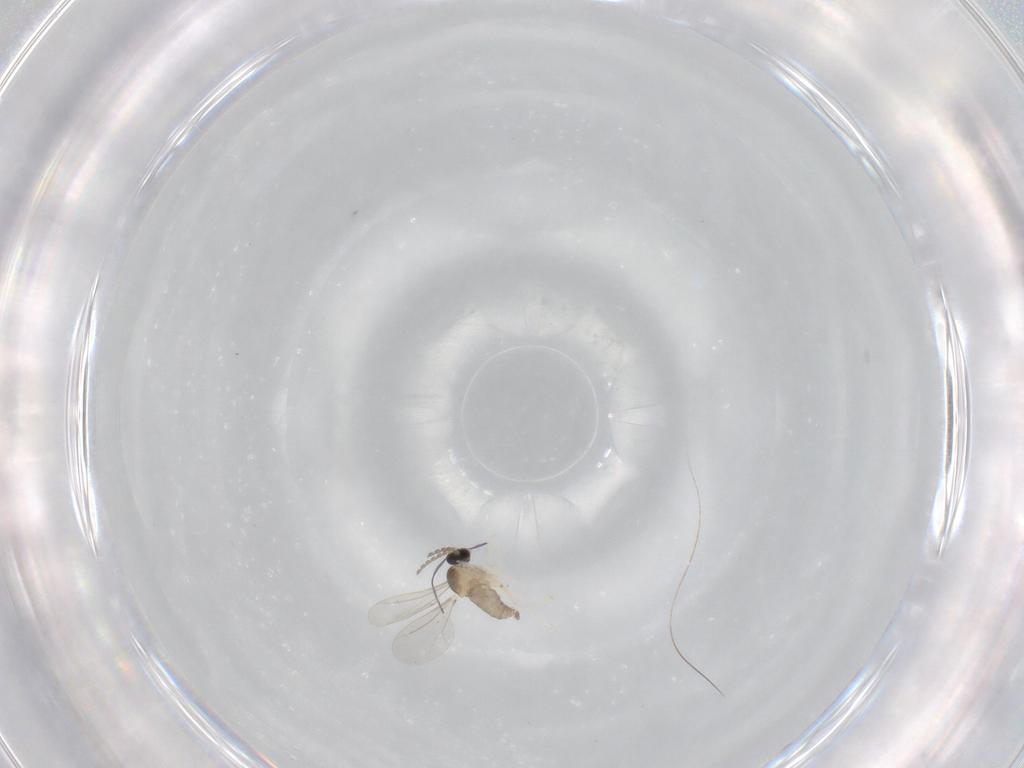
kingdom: Animalia
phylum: Arthropoda
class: Insecta
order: Diptera
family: Cecidomyiidae
